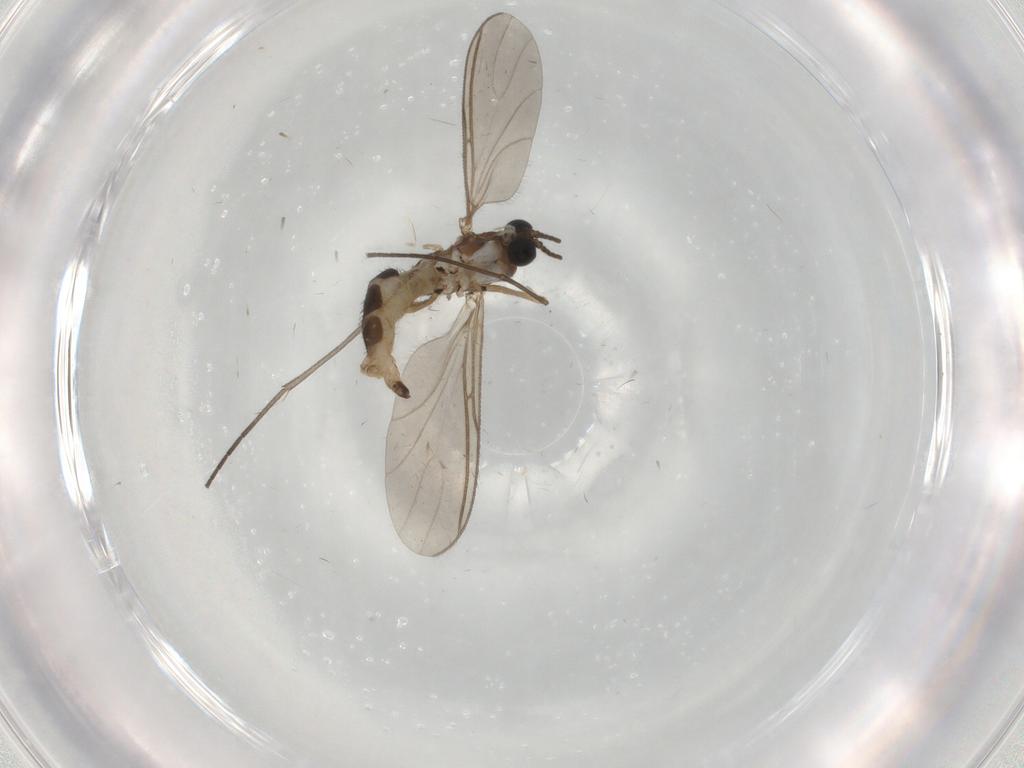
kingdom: Animalia
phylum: Arthropoda
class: Insecta
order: Diptera
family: Sciaridae
